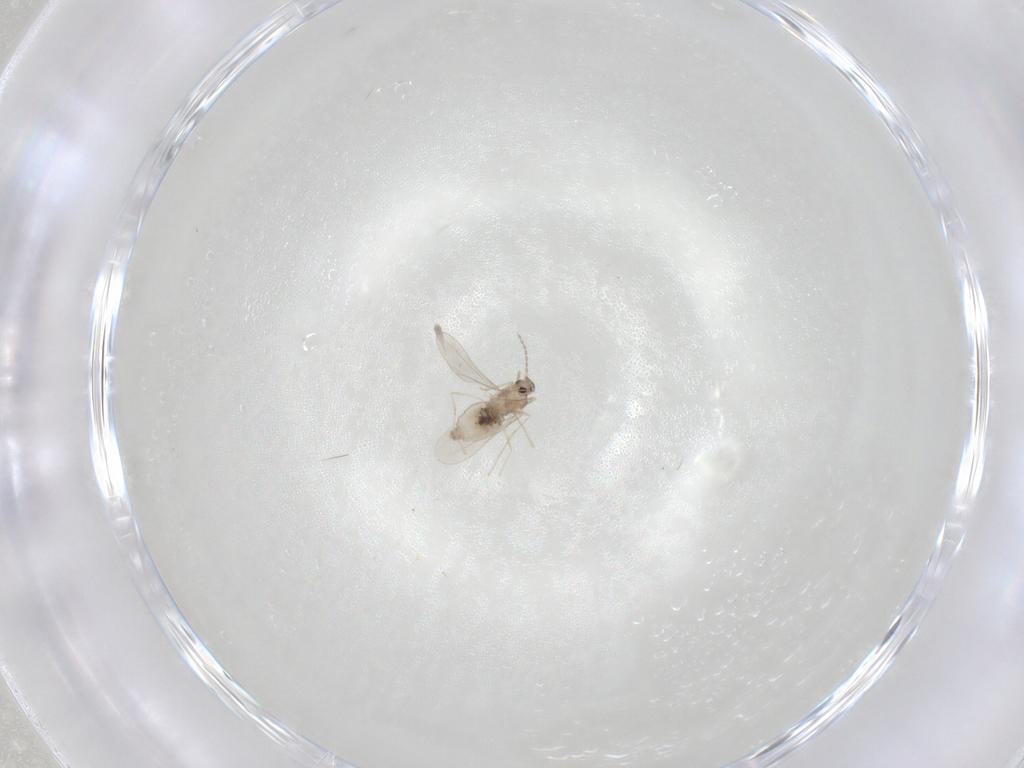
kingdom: Animalia
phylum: Arthropoda
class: Insecta
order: Diptera
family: Cecidomyiidae
